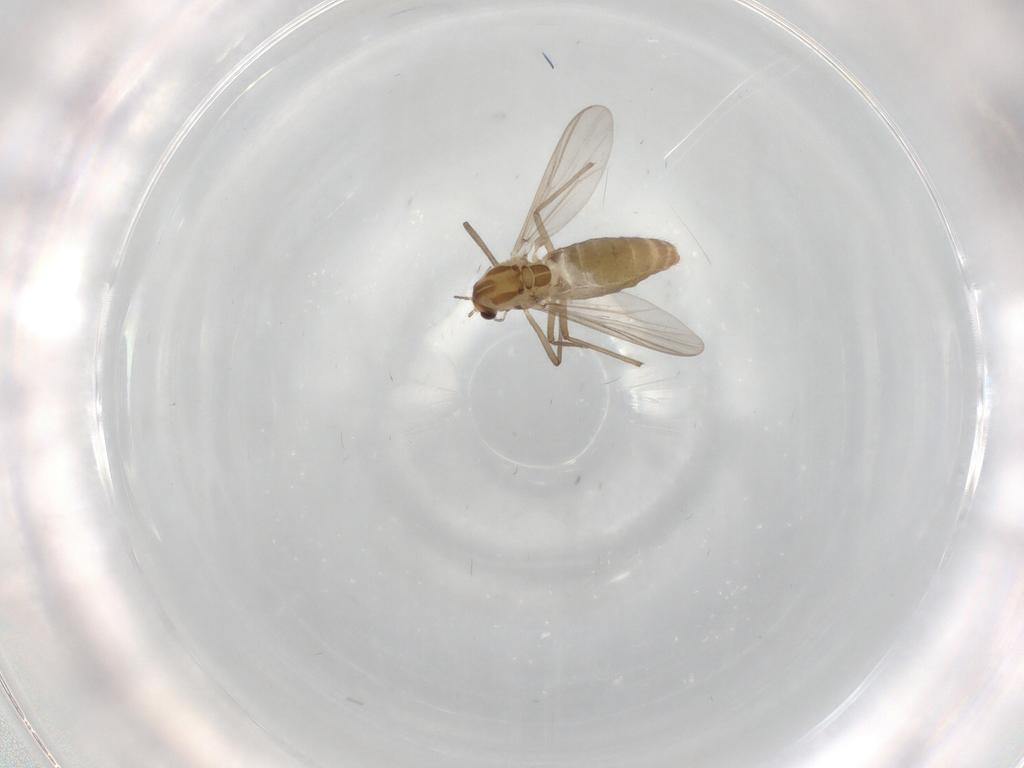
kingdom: Animalia
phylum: Arthropoda
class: Insecta
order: Diptera
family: Chironomidae
